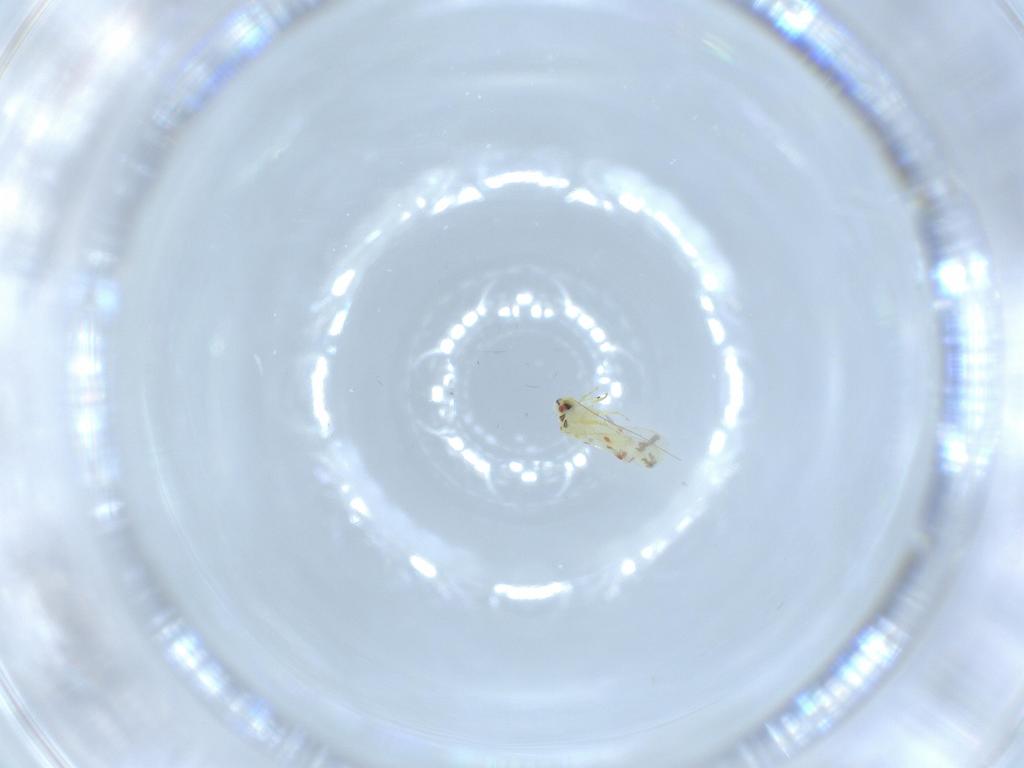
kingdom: Animalia
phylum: Arthropoda
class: Insecta
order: Hemiptera
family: Aleyrodidae
